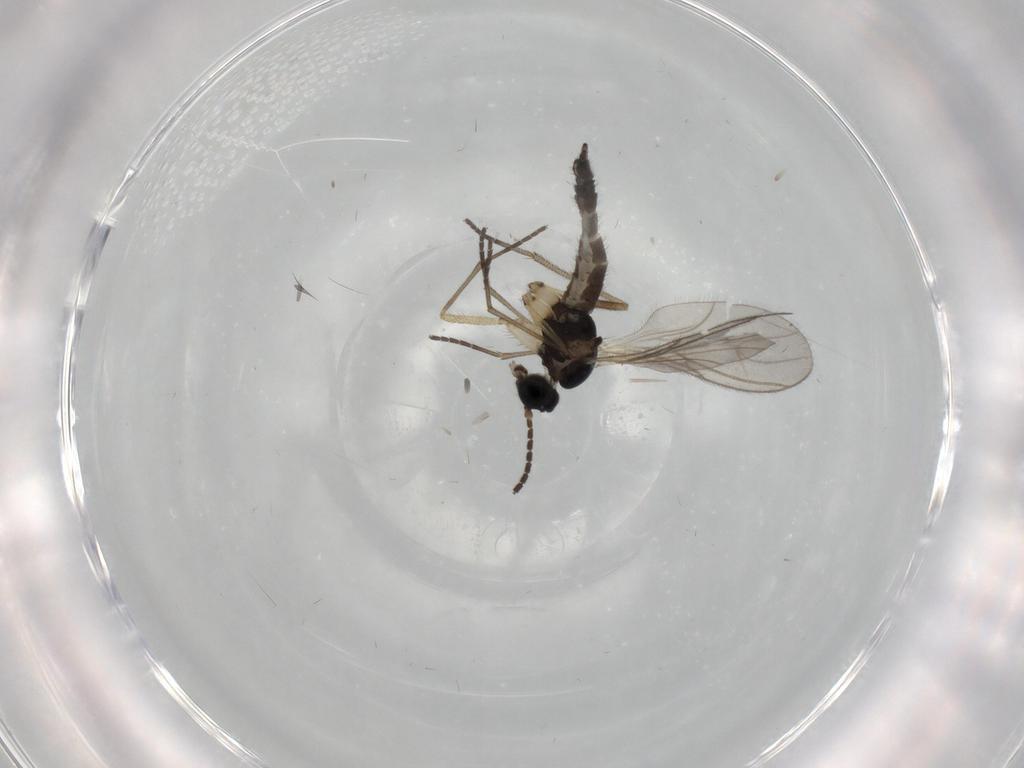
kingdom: Animalia
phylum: Arthropoda
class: Insecta
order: Diptera
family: Sciaridae
